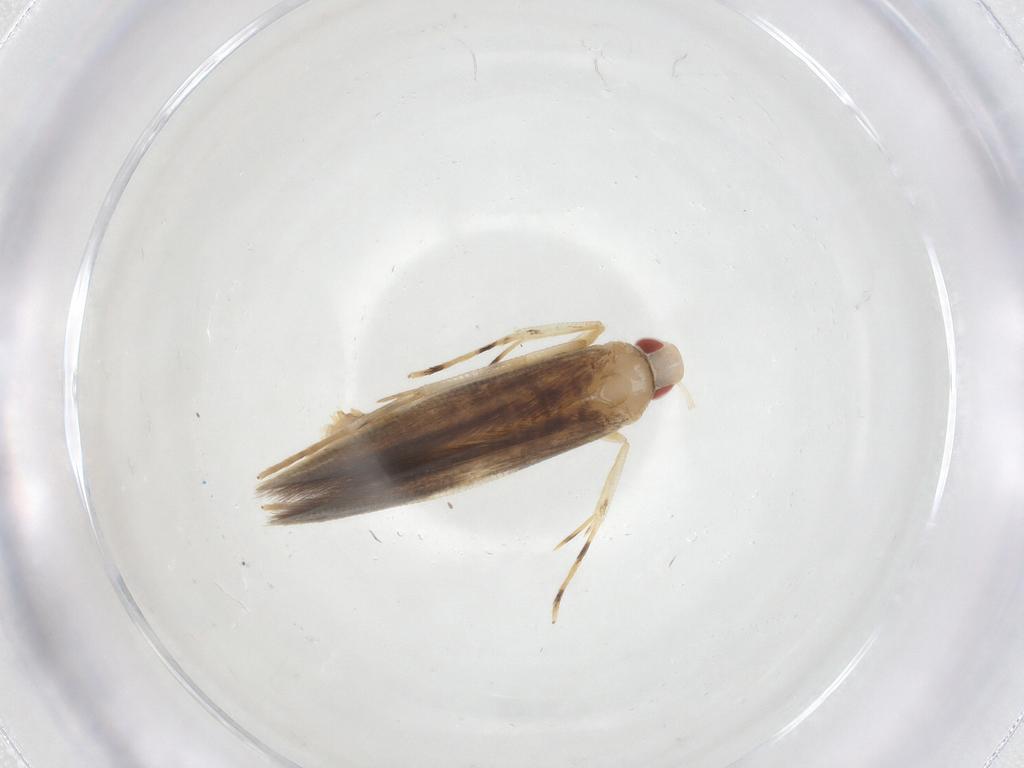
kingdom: Animalia
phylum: Arthropoda
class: Insecta
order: Lepidoptera
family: Cosmopterigidae
